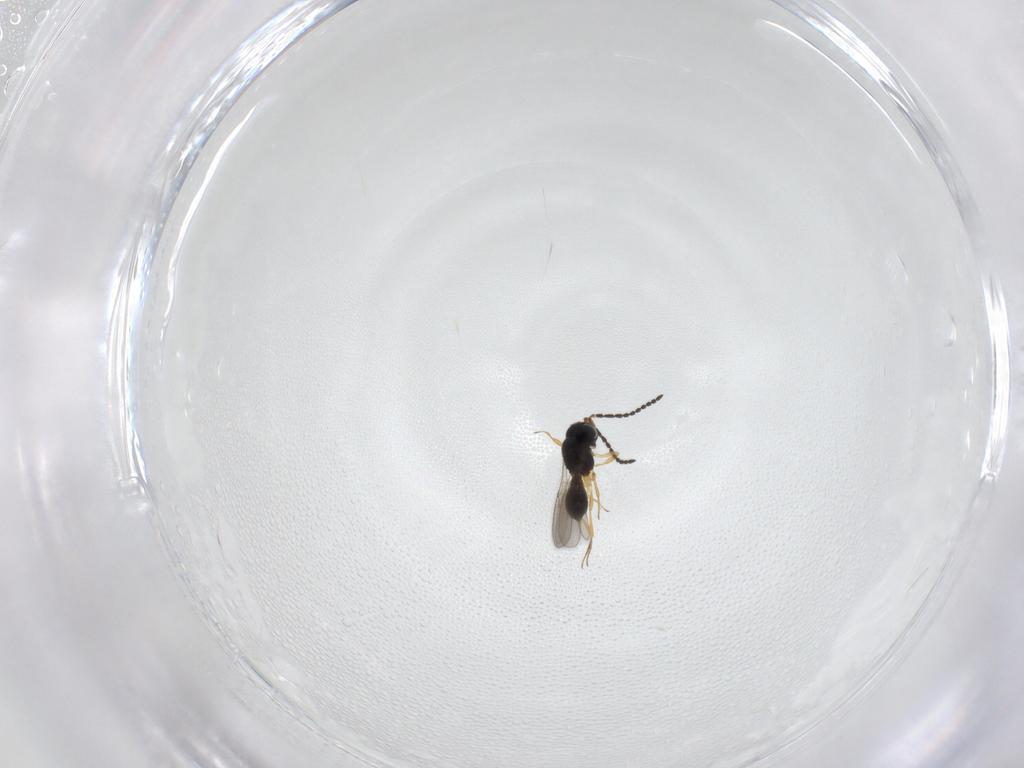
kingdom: Animalia
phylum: Arthropoda
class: Insecta
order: Hymenoptera
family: Scelionidae
